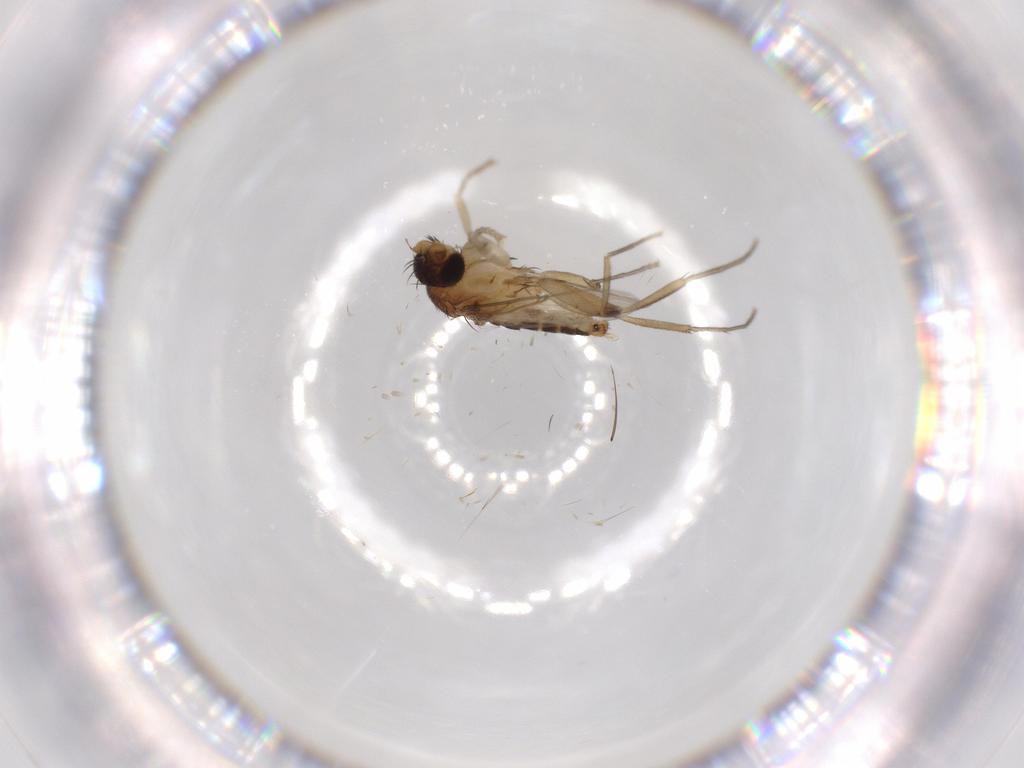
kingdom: Animalia
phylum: Arthropoda
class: Insecta
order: Diptera
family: Phoridae
